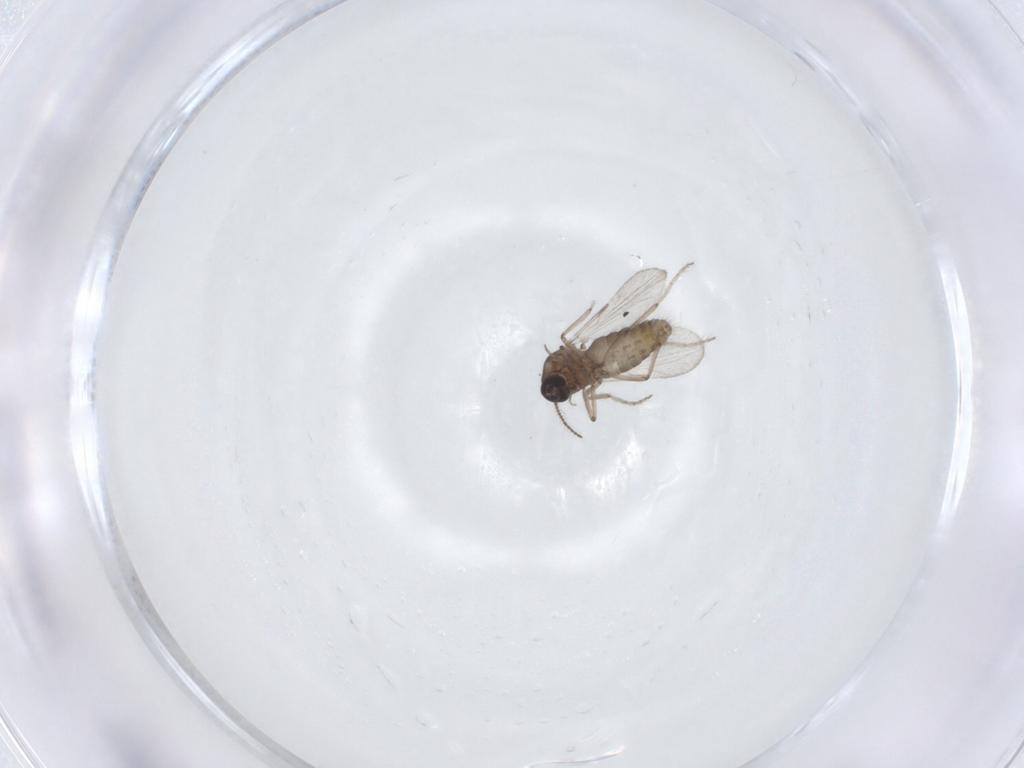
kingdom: Animalia
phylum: Arthropoda
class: Insecta
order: Diptera
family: Ceratopogonidae
